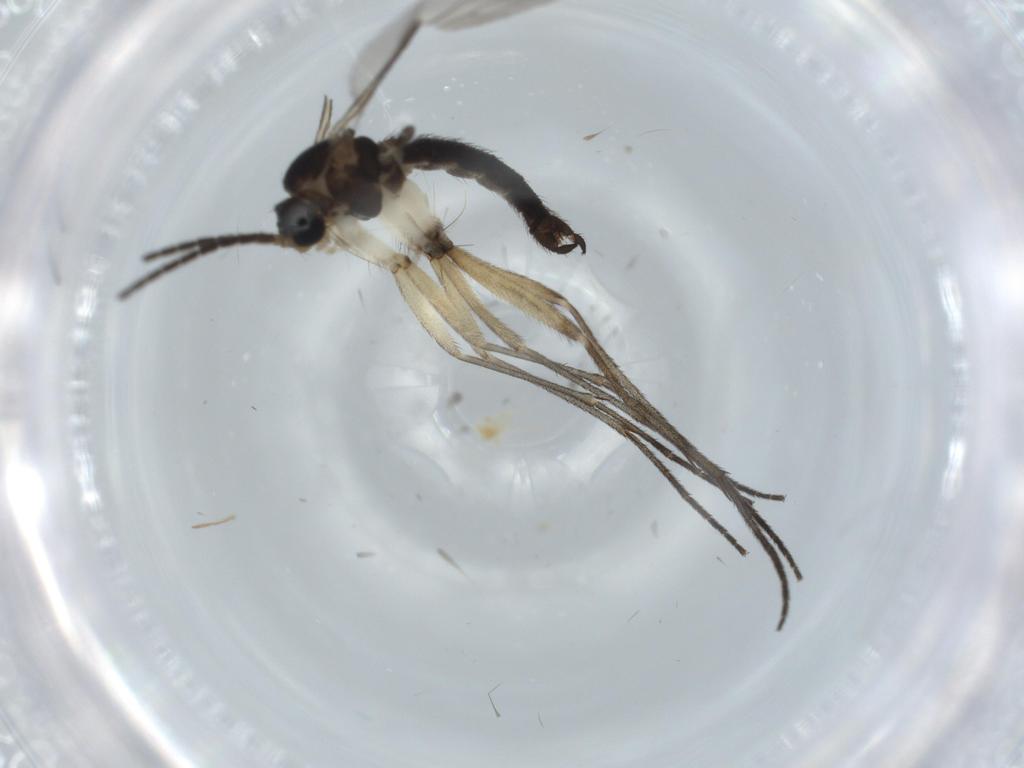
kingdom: Animalia
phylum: Arthropoda
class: Insecta
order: Diptera
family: Sciaridae
